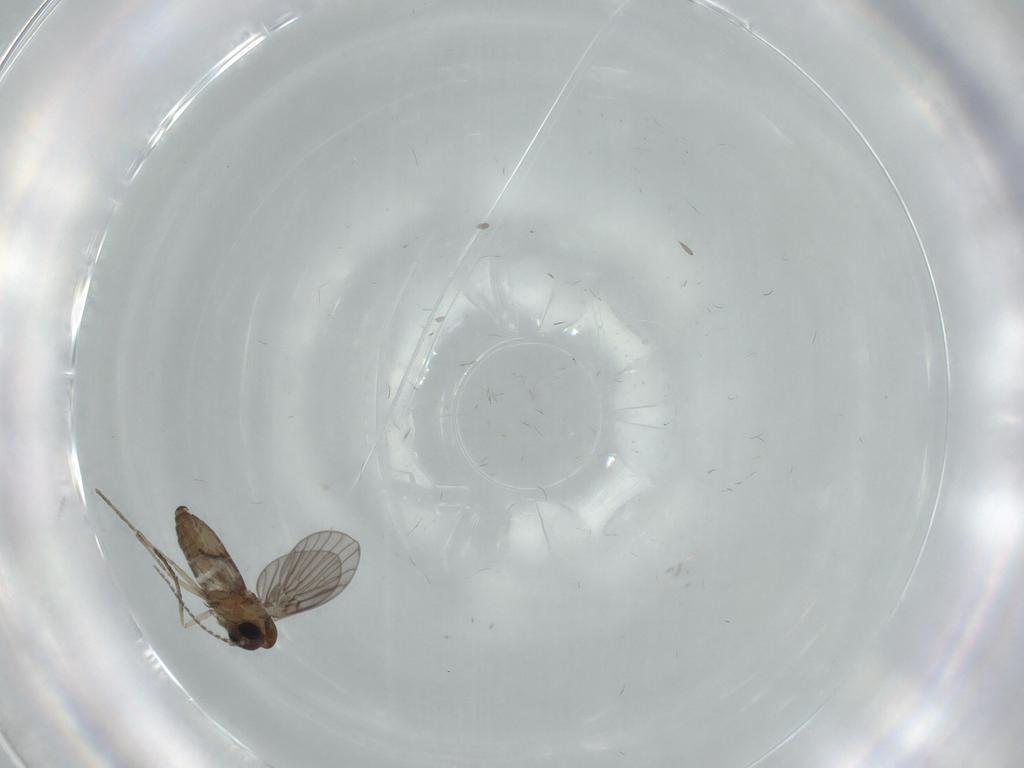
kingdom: Animalia
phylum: Arthropoda
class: Insecta
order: Diptera
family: Psychodidae
